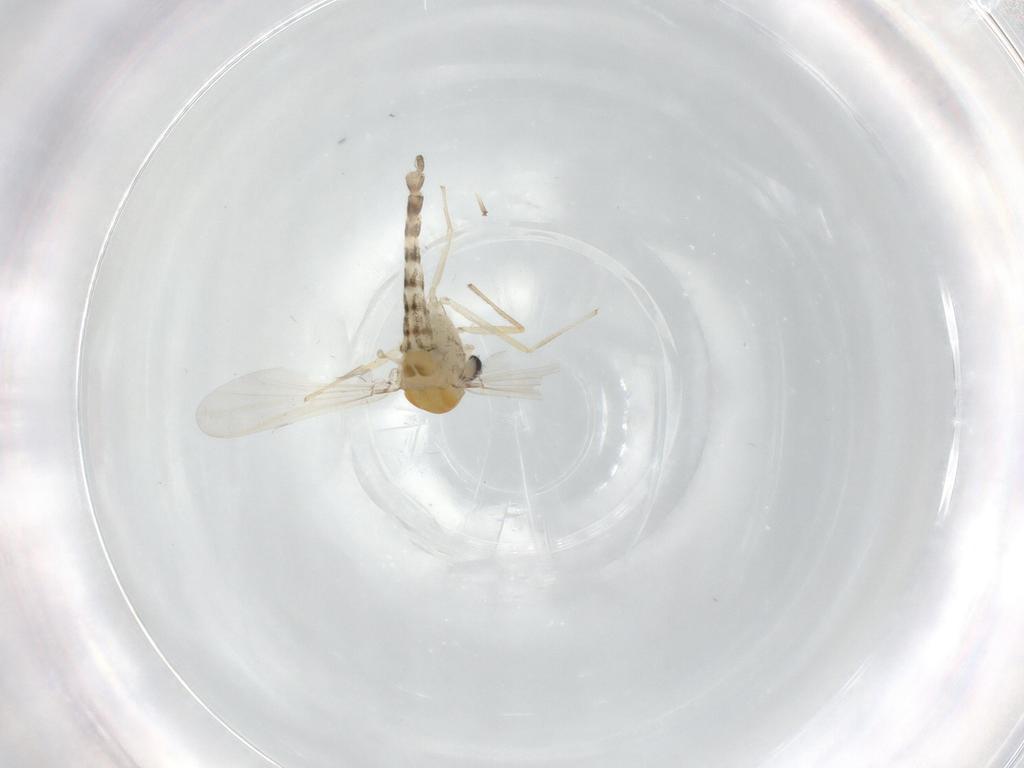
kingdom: Animalia
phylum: Arthropoda
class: Insecta
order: Diptera
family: Chironomidae
